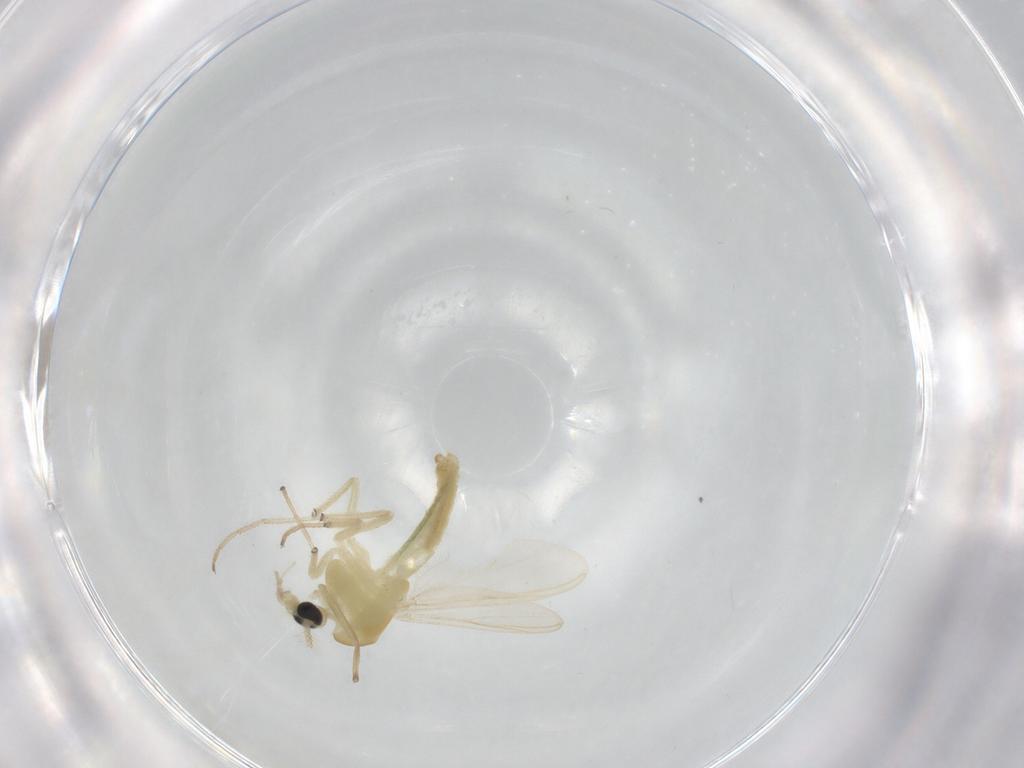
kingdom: Animalia
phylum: Arthropoda
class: Insecta
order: Diptera
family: Chironomidae
